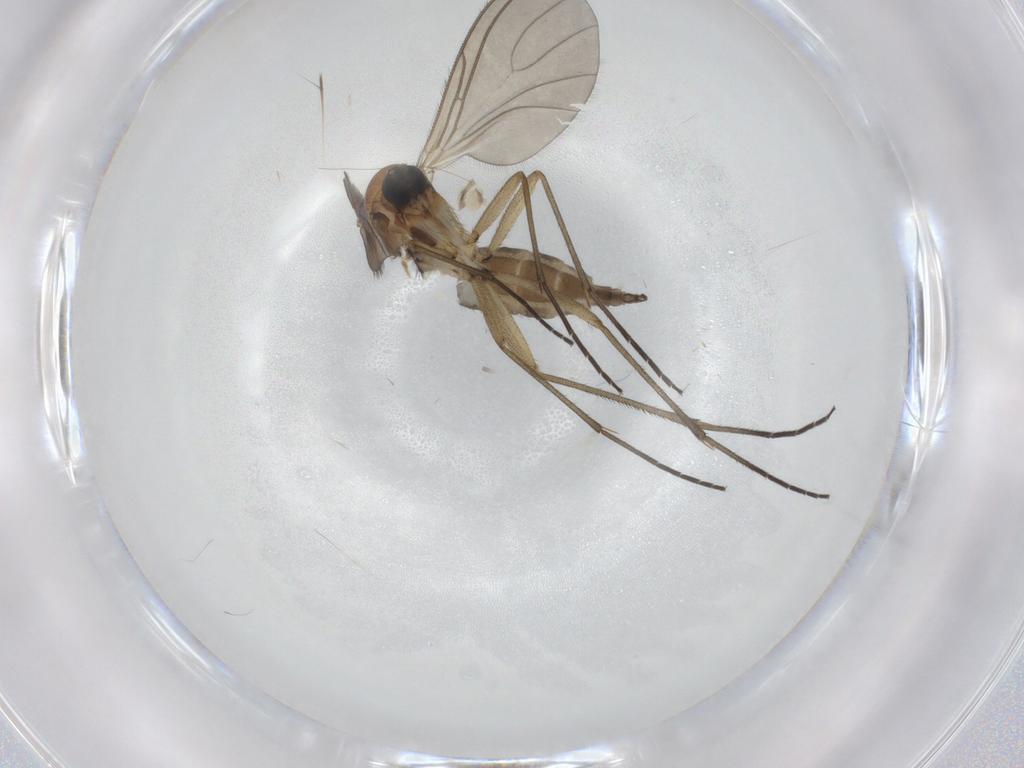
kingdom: Animalia
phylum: Arthropoda
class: Insecta
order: Diptera
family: Sciaridae
